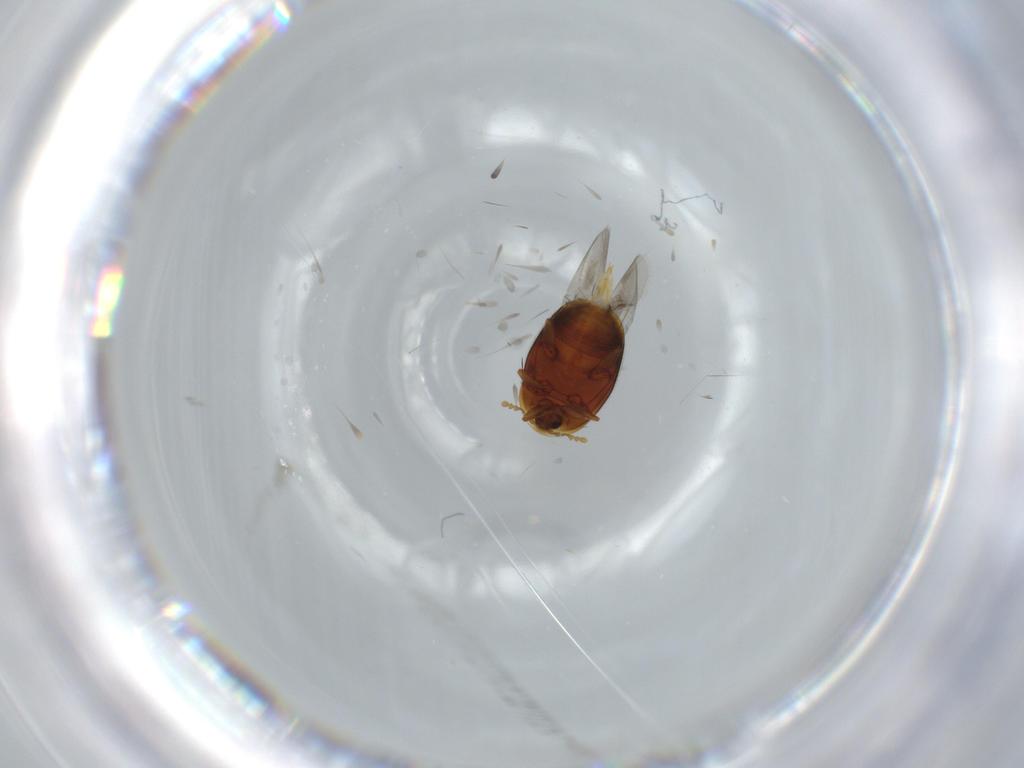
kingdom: Animalia
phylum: Arthropoda
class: Insecta
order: Coleoptera
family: Corylophidae
